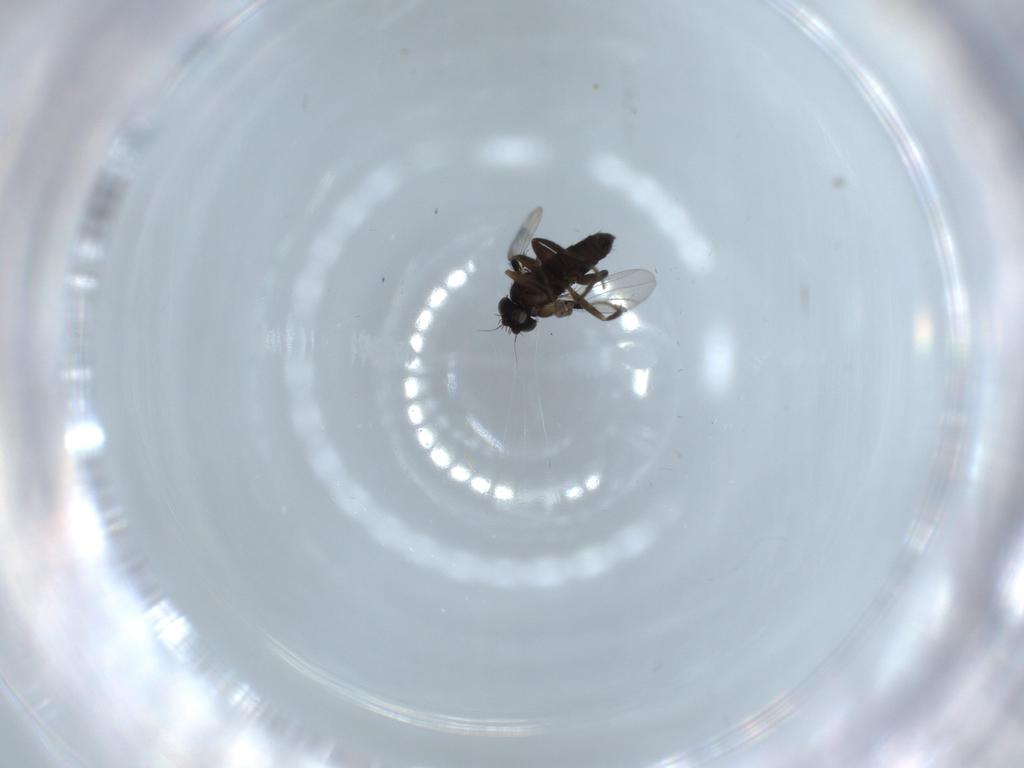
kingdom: Animalia
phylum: Arthropoda
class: Insecta
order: Diptera
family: Phoridae
